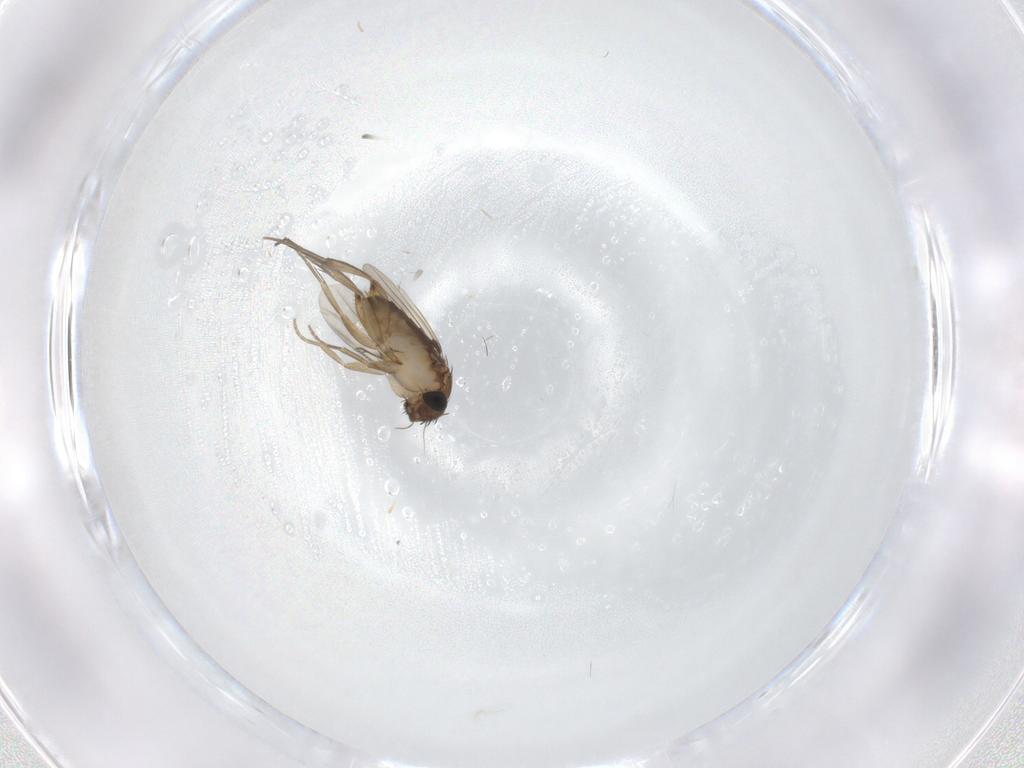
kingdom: Animalia
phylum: Arthropoda
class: Insecta
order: Diptera
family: Phoridae
